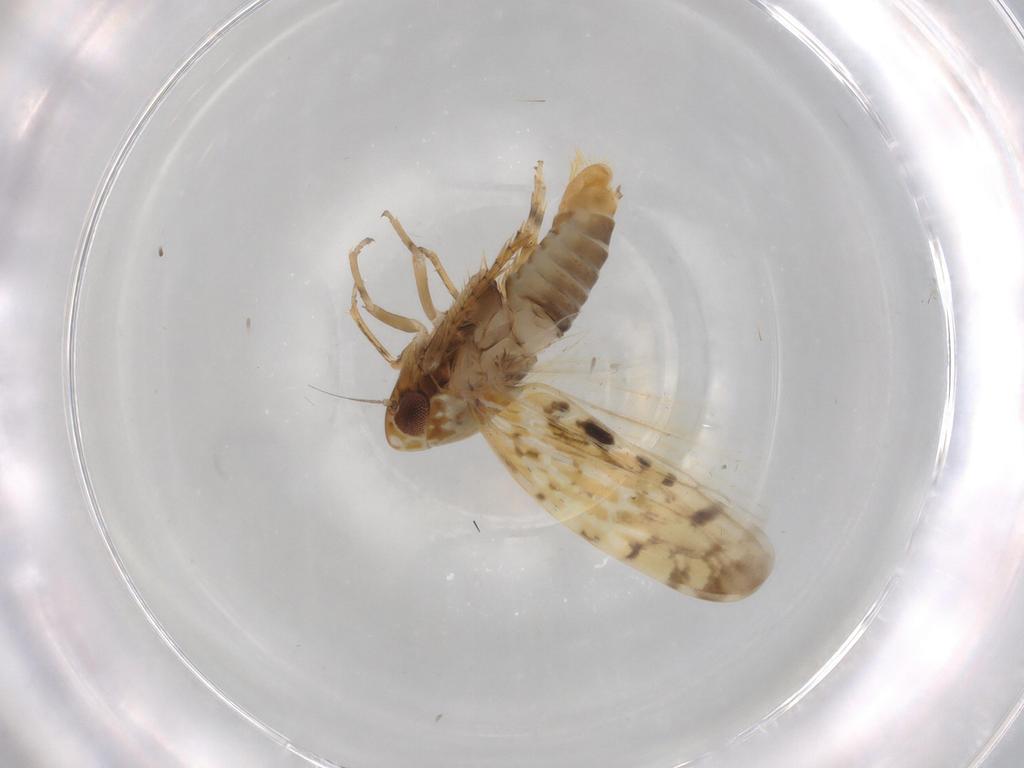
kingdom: Animalia
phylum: Arthropoda
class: Insecta
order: Hemiptera
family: Cicadellidae
